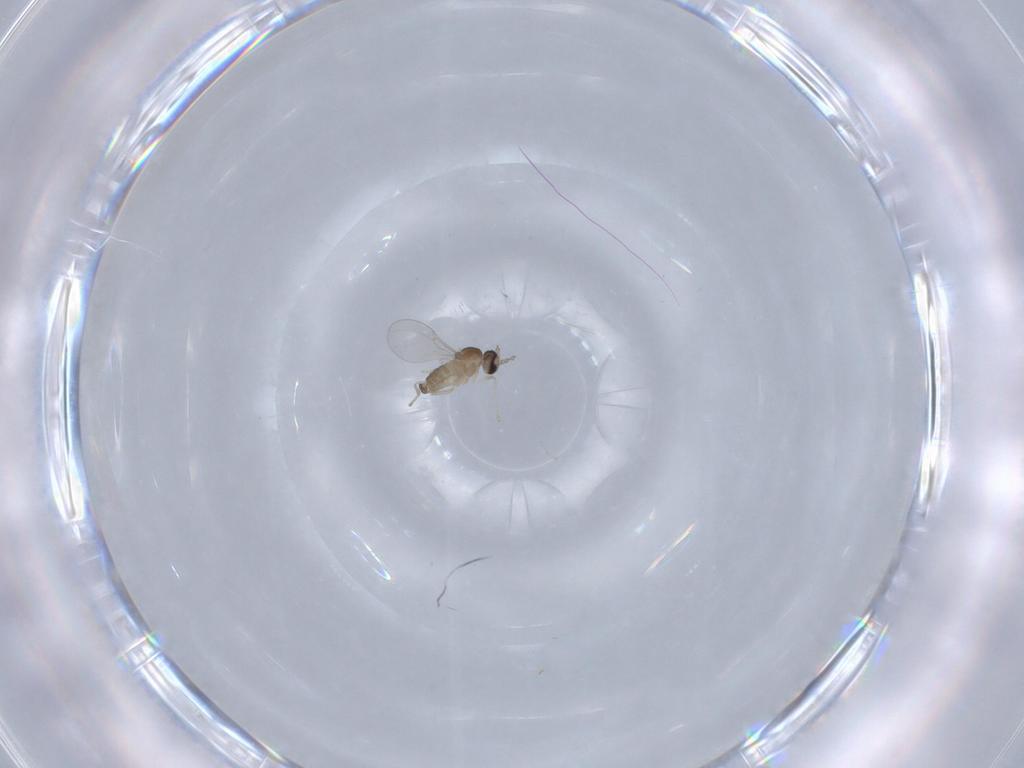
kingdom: Animalia
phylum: Arthropoda
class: Insecta
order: Diptera
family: Cecidomyiidae
